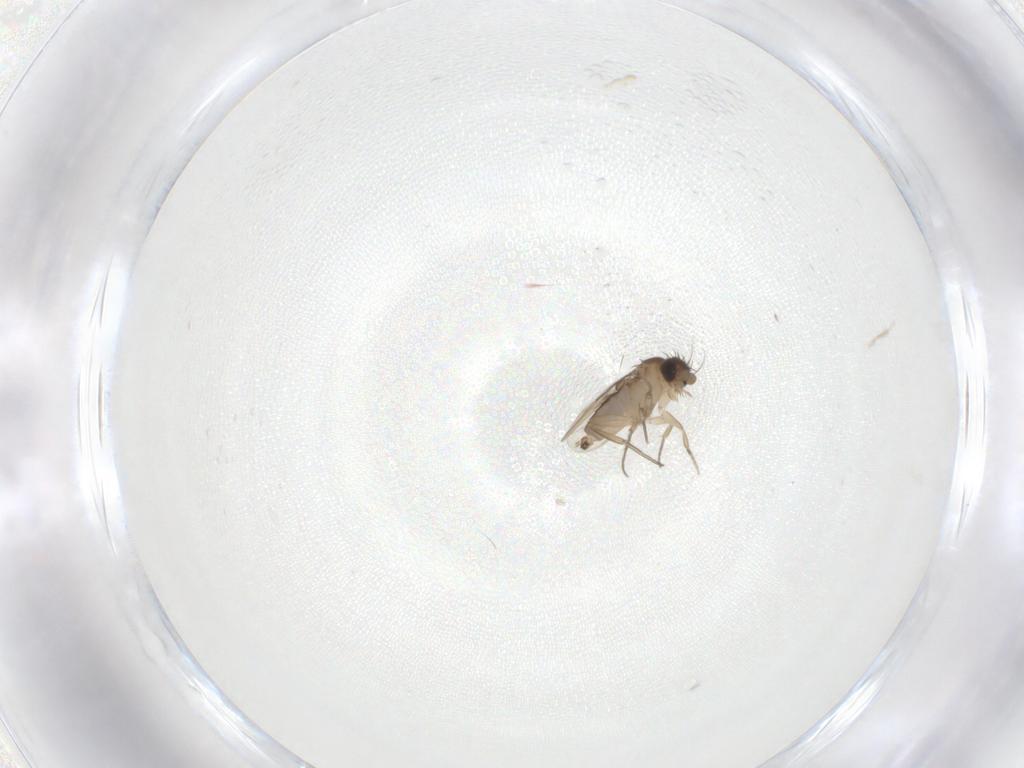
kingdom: Animalia
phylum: Arthropoda
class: Insecta
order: Diptera
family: Phoridae
